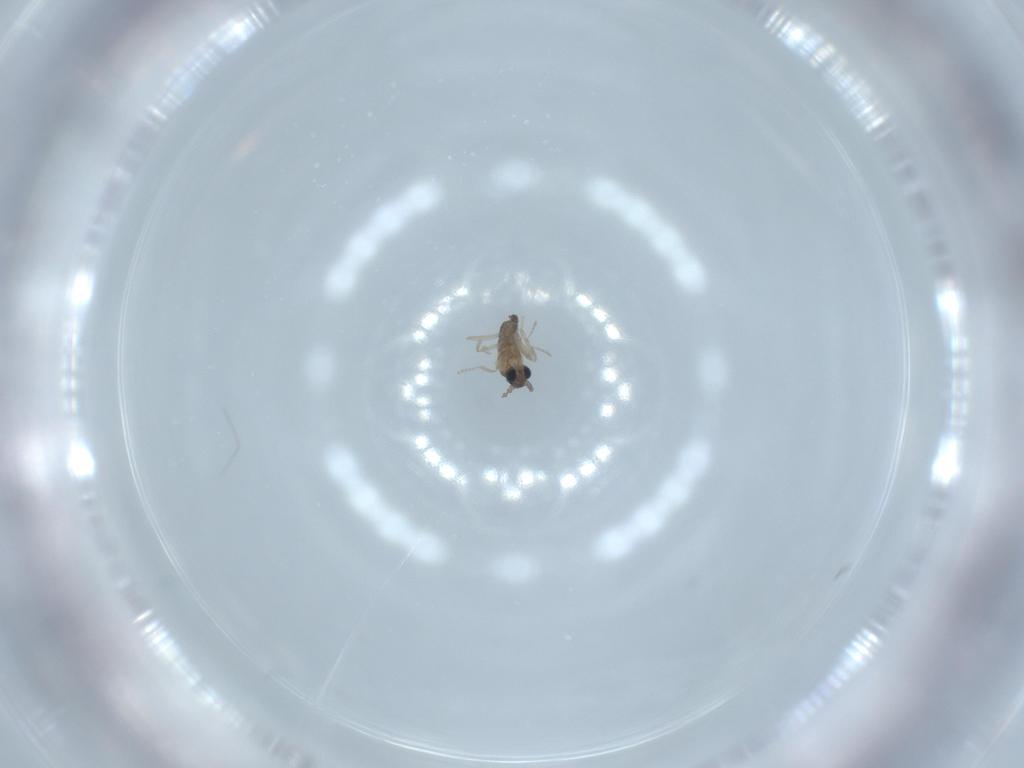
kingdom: Animalia
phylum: Arthropoda
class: Insecta
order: Diptera
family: Cecidomyiidae
